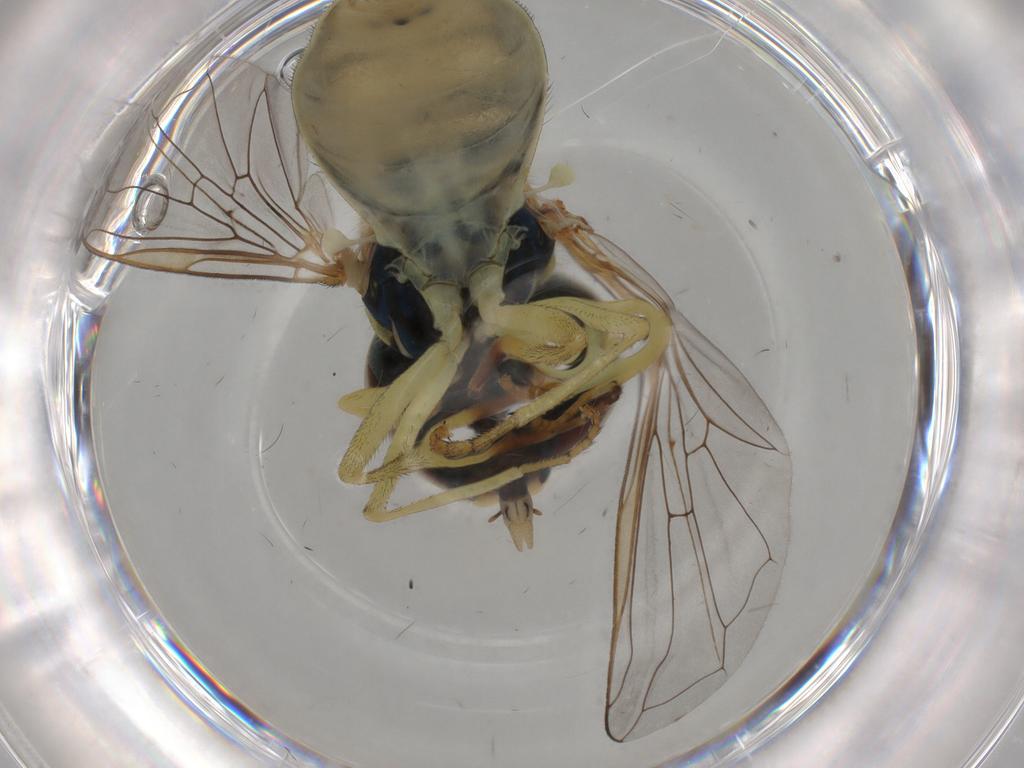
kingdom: Animalia
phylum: Arthropoda
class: Insecta
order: Diptera
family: Syrphidae
